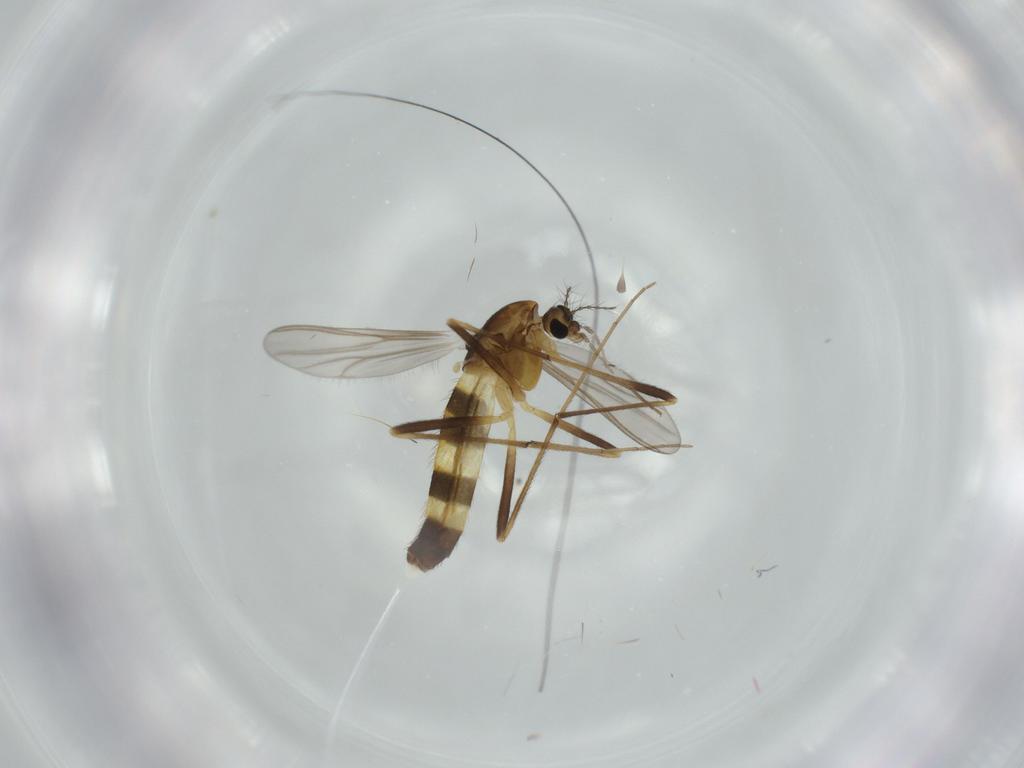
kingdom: Animalia
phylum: Arthropoda
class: Insecta
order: Diptera
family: Chironomidae
